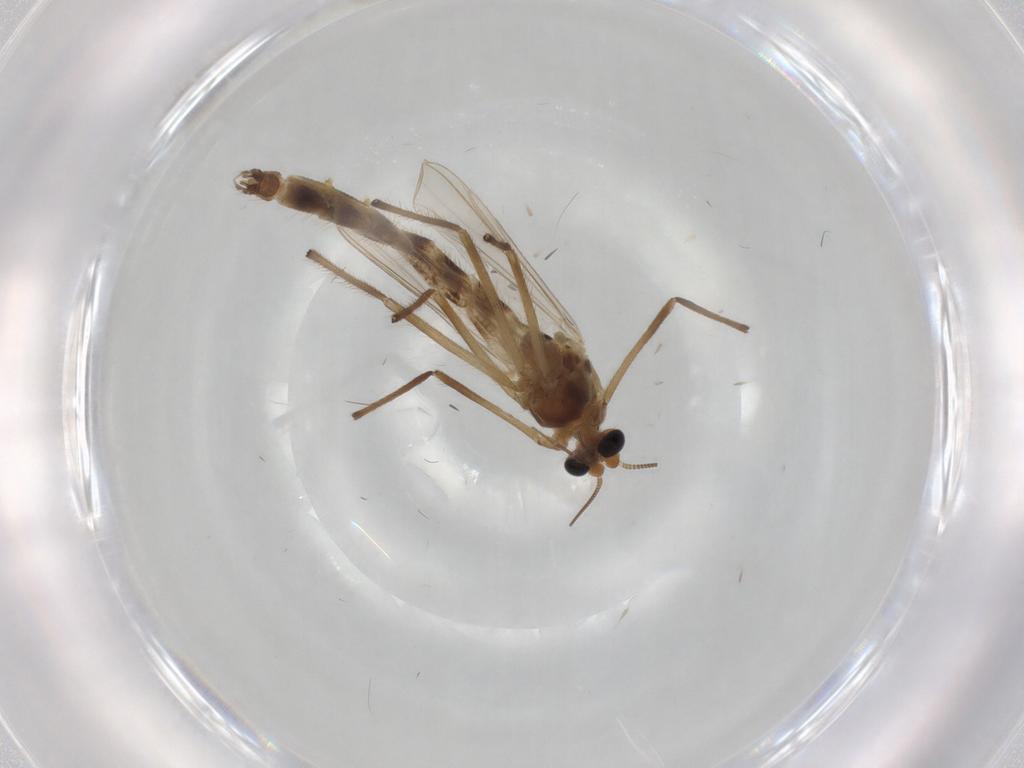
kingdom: Animalia
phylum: Arthropoda
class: Insecta
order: Diptera
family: Chironomidae
